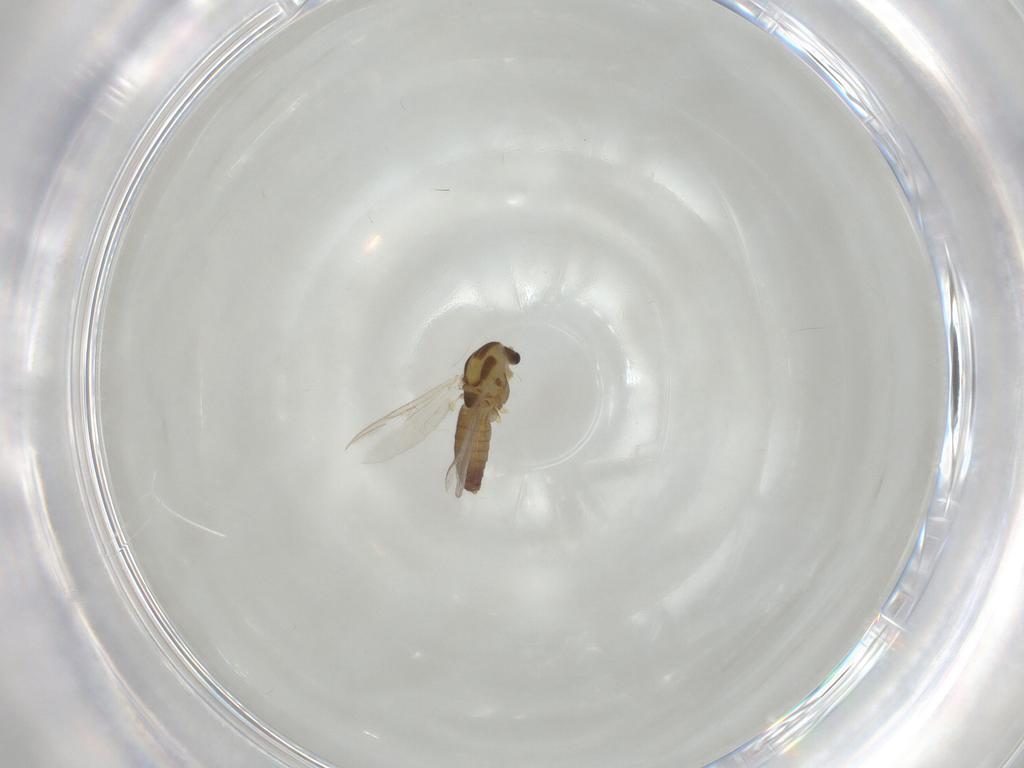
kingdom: Animalia
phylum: Arthropoda
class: Insecta
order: Diptera
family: Chironomidae
